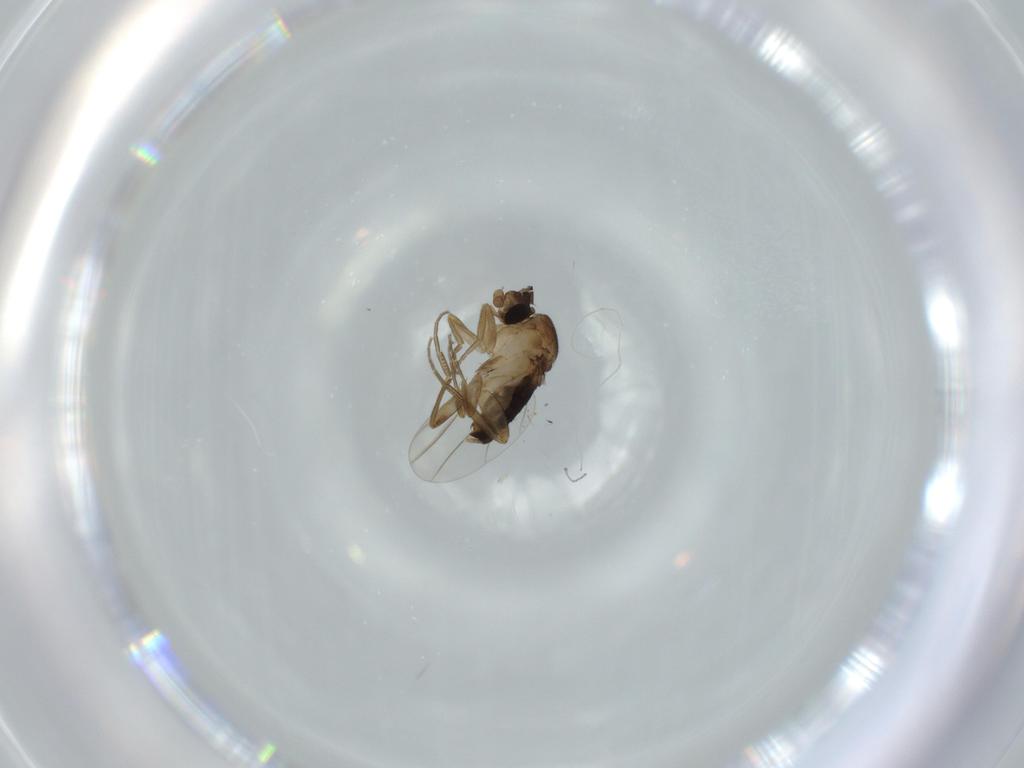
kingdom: Animalia
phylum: Arthropoda
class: Insecta
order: Diptera
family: Phoridae
